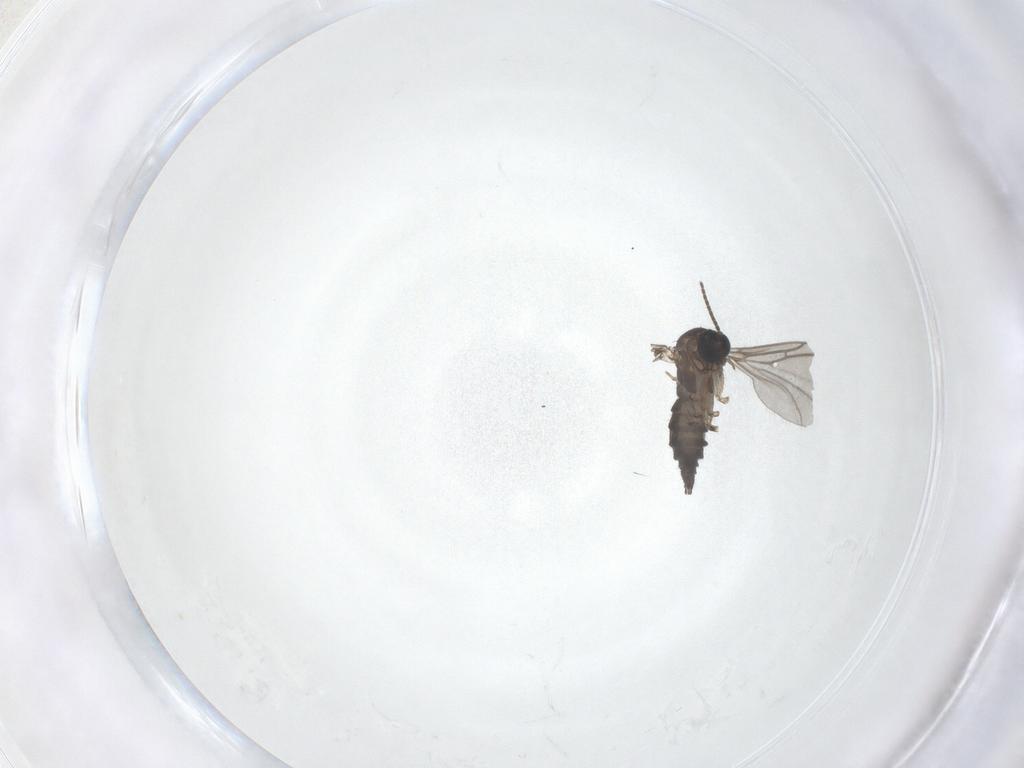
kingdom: Animalia
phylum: Arthropoda
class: Insecta
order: Diptera
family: Sciaridae
